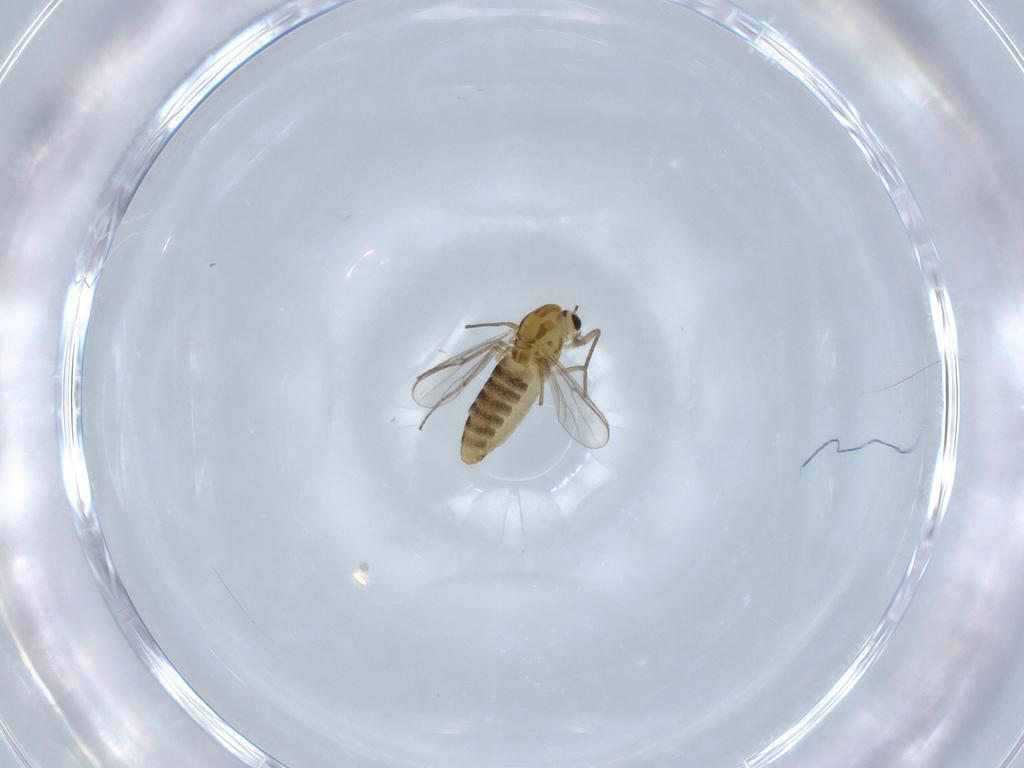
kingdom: Animalia
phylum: Arthropoda
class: Insecta
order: Diptera
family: Chironomidae
